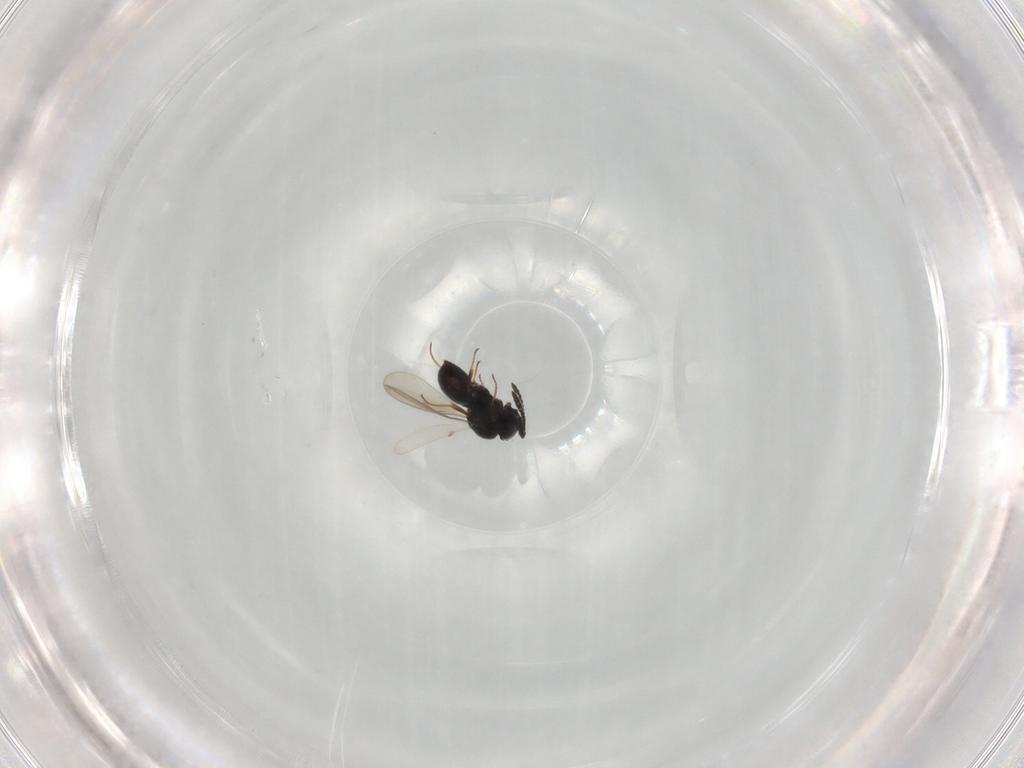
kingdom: Animalia
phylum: Arthropoda
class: Insecta
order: Hymenoptera
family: Scelionidae
